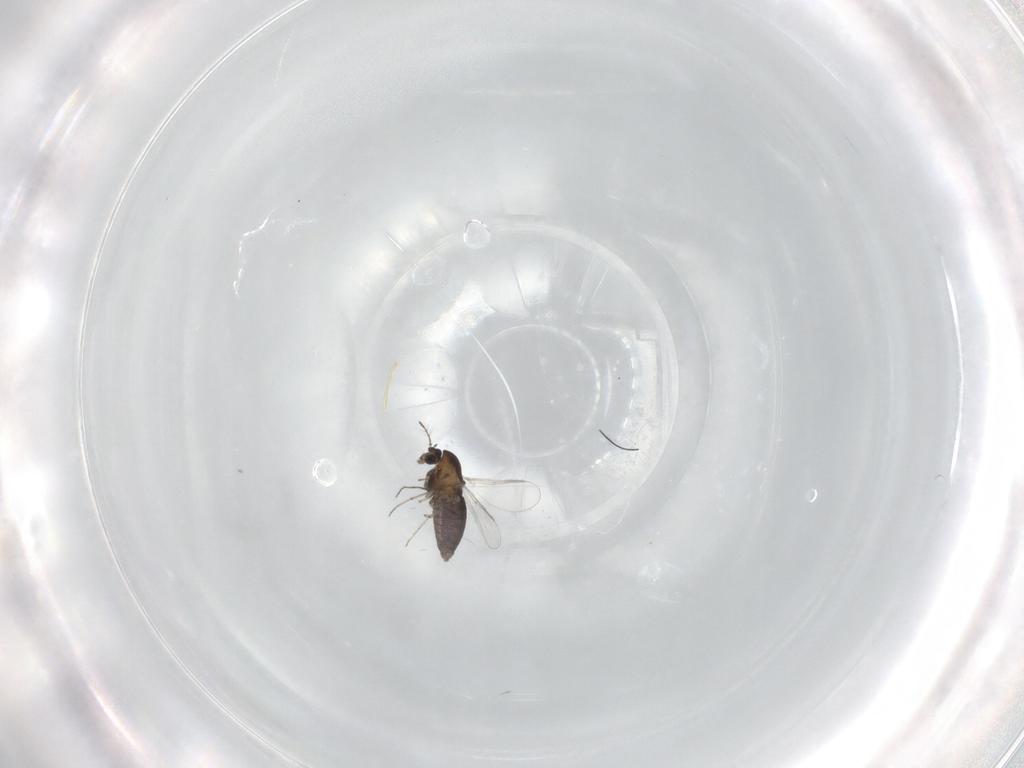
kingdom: Animalia
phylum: Arthropoda
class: Insecta
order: Diptera
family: Chironomidae
